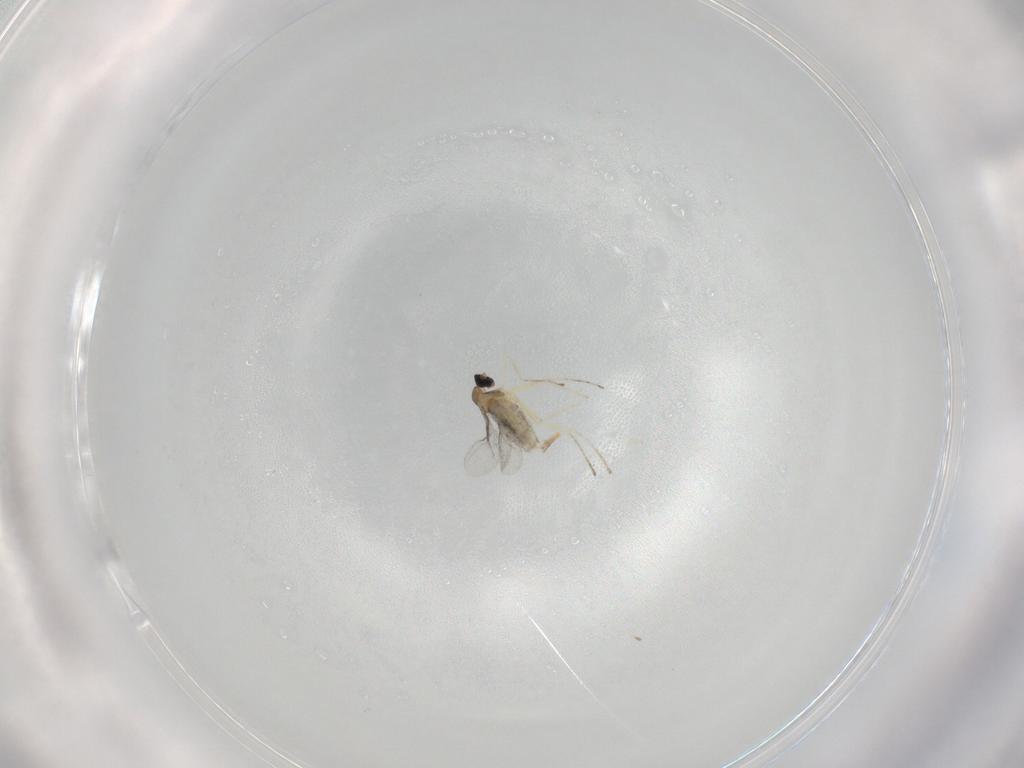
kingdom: Animalia
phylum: Arthropoda
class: Insecta
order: Diptera
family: Cecidomyiidae
